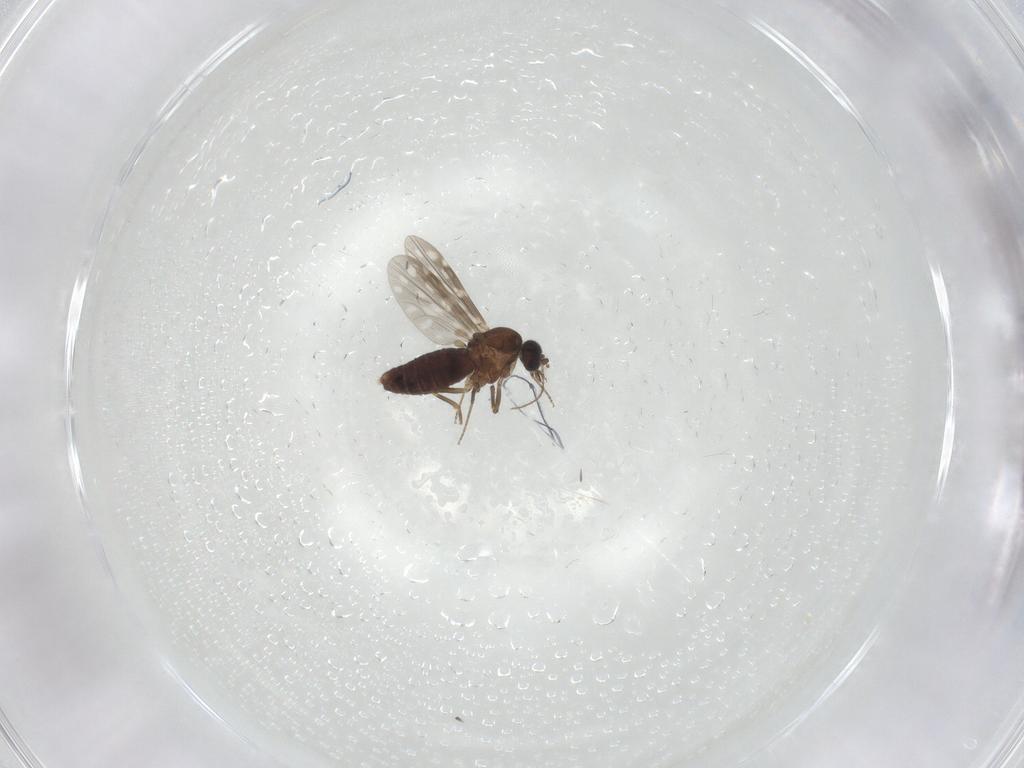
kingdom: Animalia
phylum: Arthropoda
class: Insecta
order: Diptera
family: Ceratopogonidae
